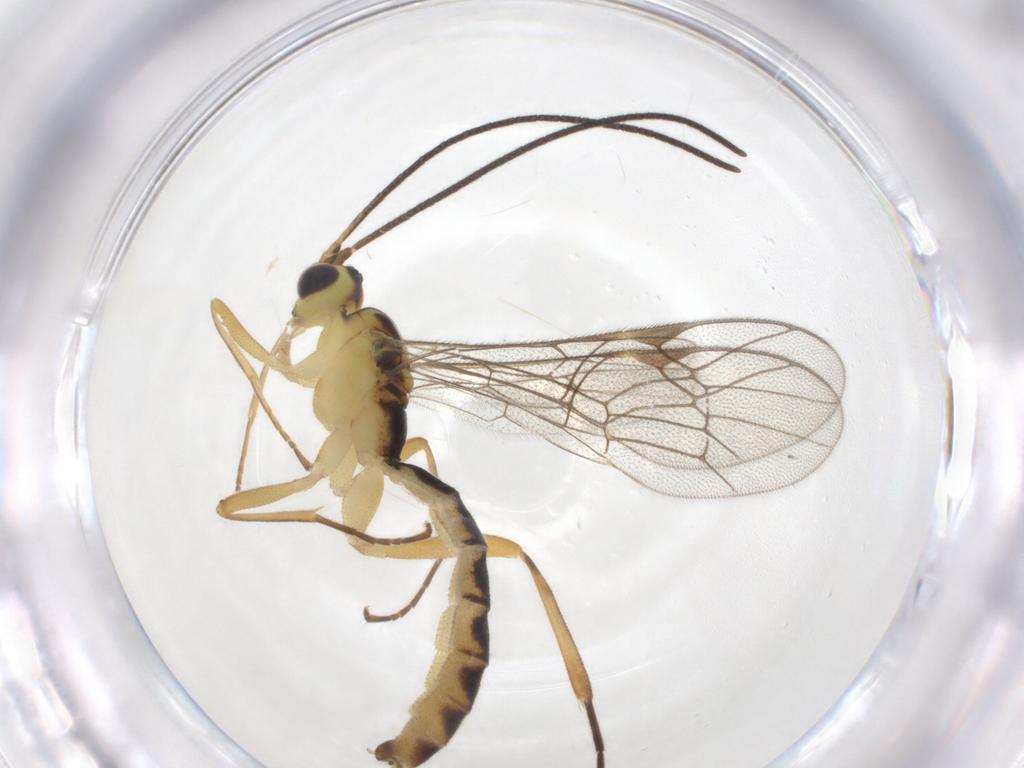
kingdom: Animalia
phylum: Arthropoda
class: Insecta
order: Hymenoptera
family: Ichneumonidae
